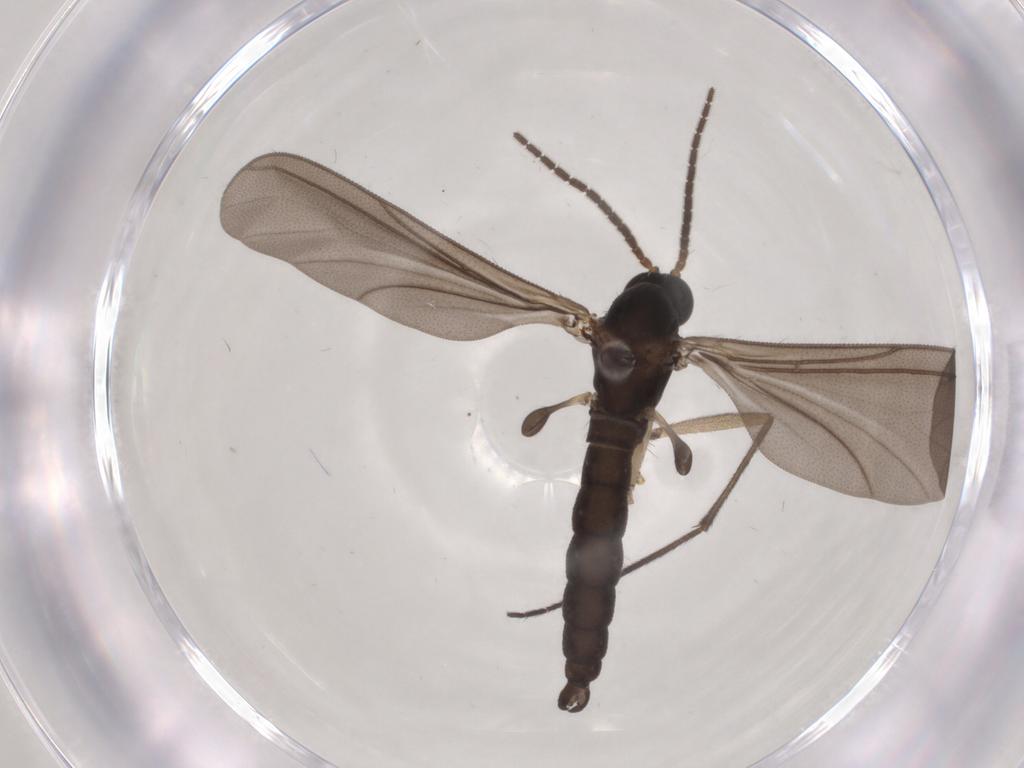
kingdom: Animalia
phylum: Arthropoda
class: Insecta
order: Diptera
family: Sciaridae
